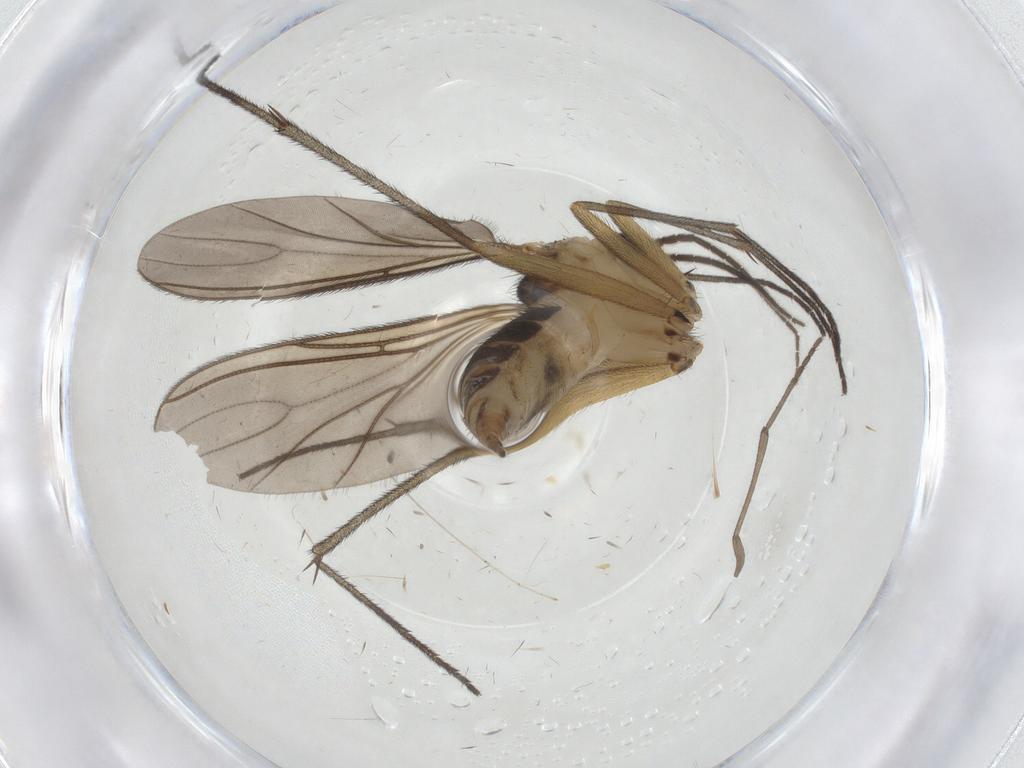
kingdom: Animalia
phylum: Arthropoda
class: Insecta
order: Diptera
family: Sciaridae
